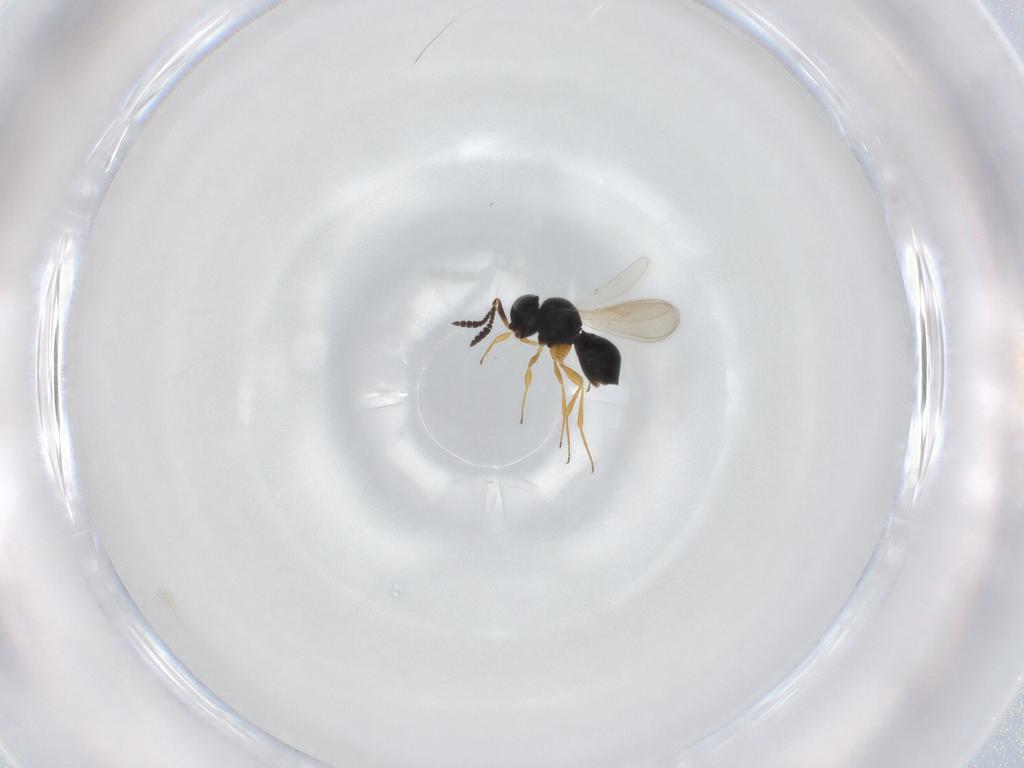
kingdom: Animalia
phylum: Arthropoda
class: Insecta
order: Hymenoptera
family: Scelionidae
